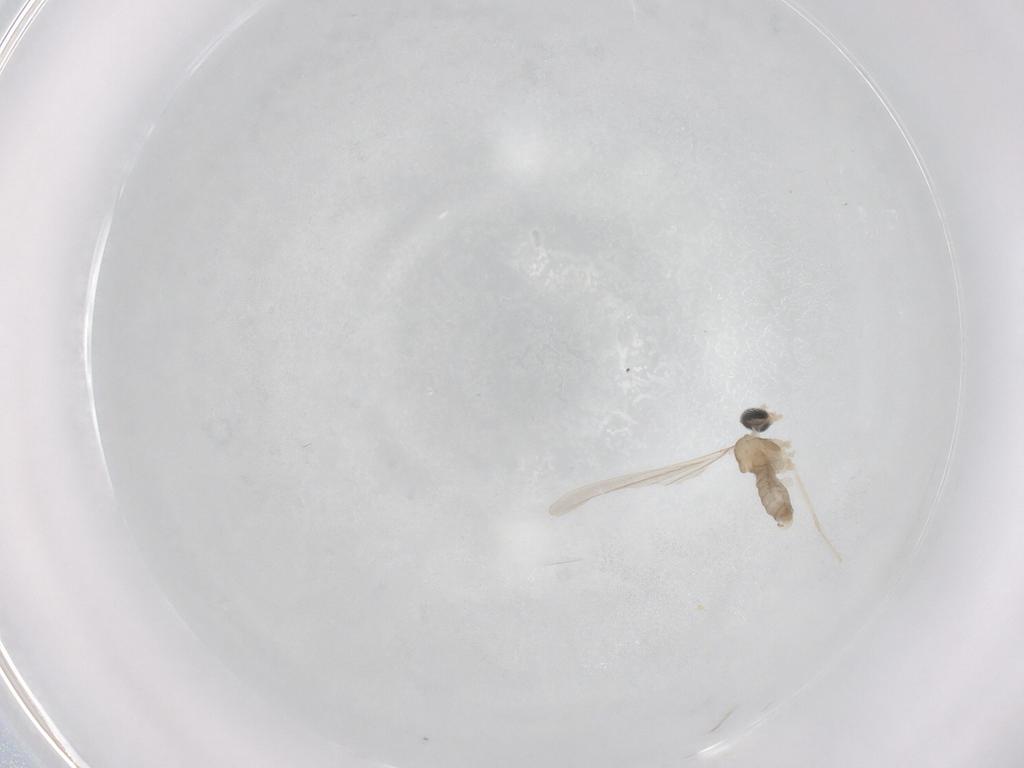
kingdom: Animalia
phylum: Arthropoda
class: Insecta
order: Diptera
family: Cecidomyiidae
